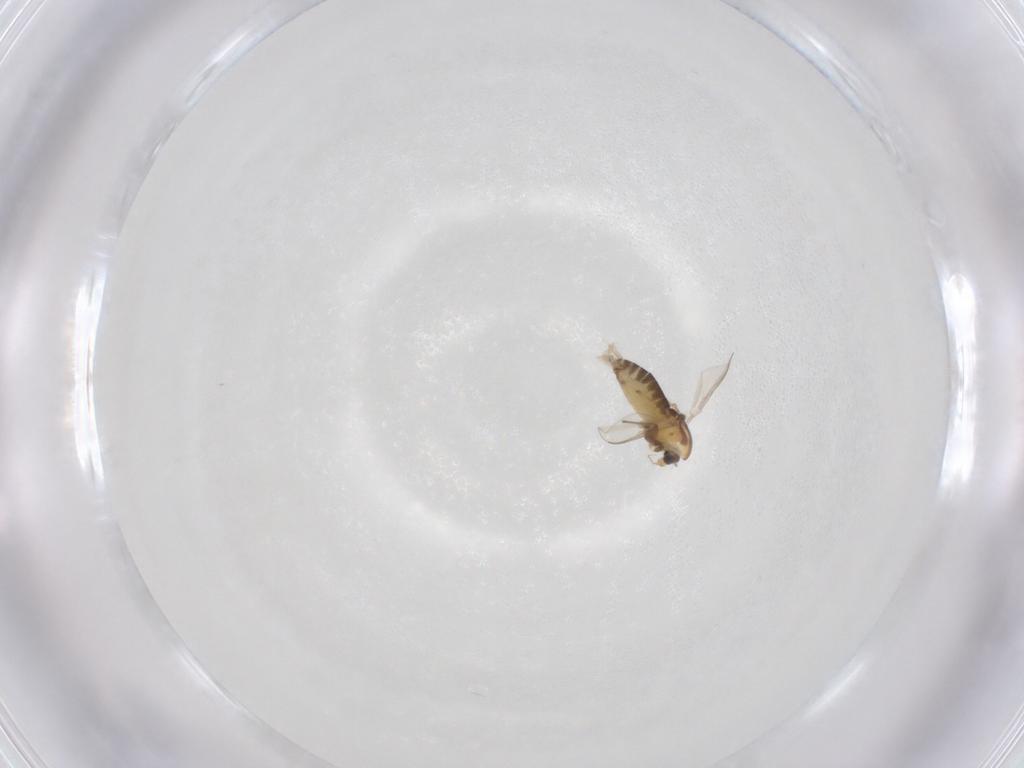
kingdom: Animalia
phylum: Arthropoda
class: Insecta
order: Diptera
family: Chironomidae
